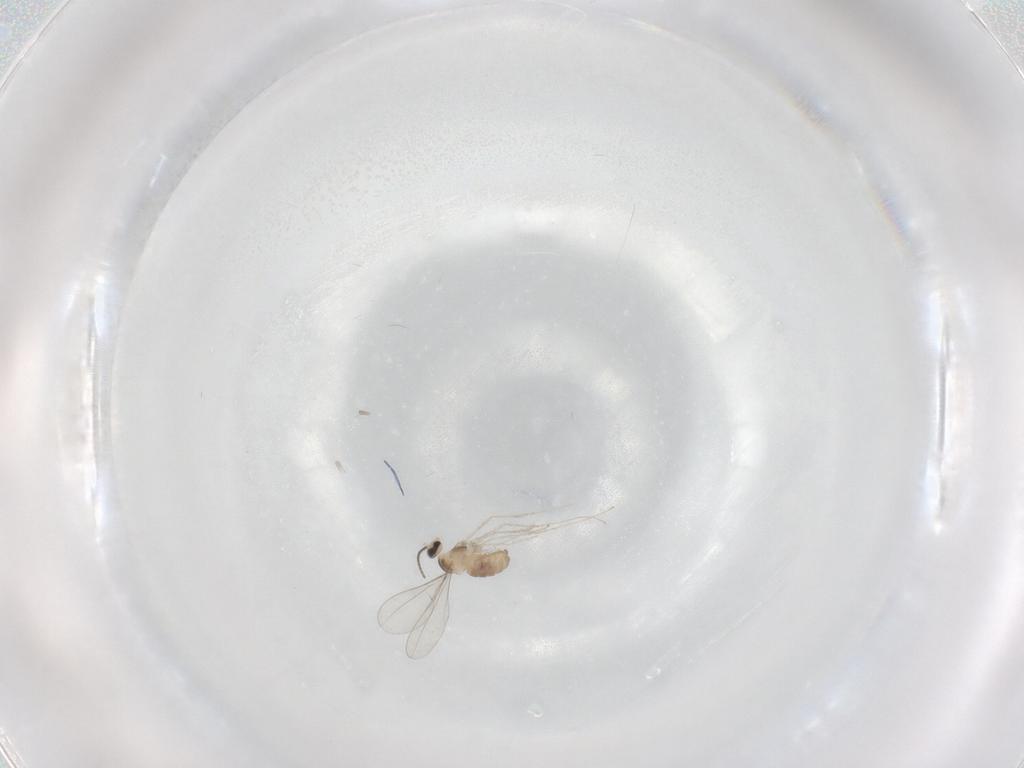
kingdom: Animalia
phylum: Arthropoda
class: Insecta
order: Diptera
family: Cecidomyiidae
